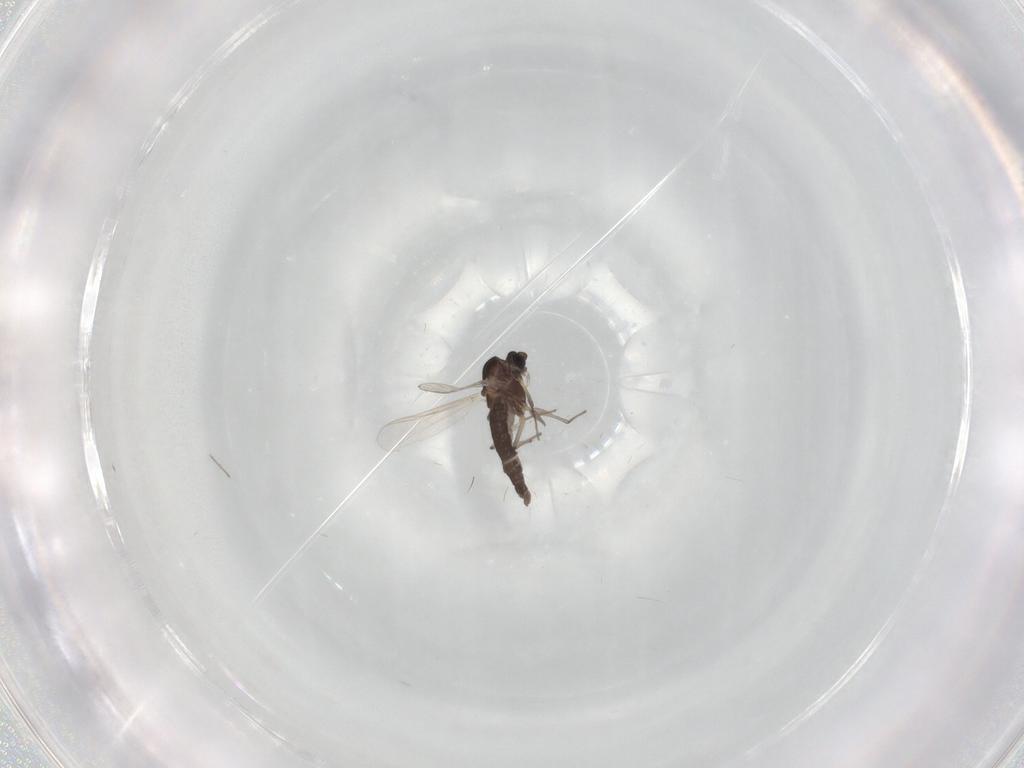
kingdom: Animalia
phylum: Arthropoda
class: Insecta
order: Diptera
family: Chironomidae
